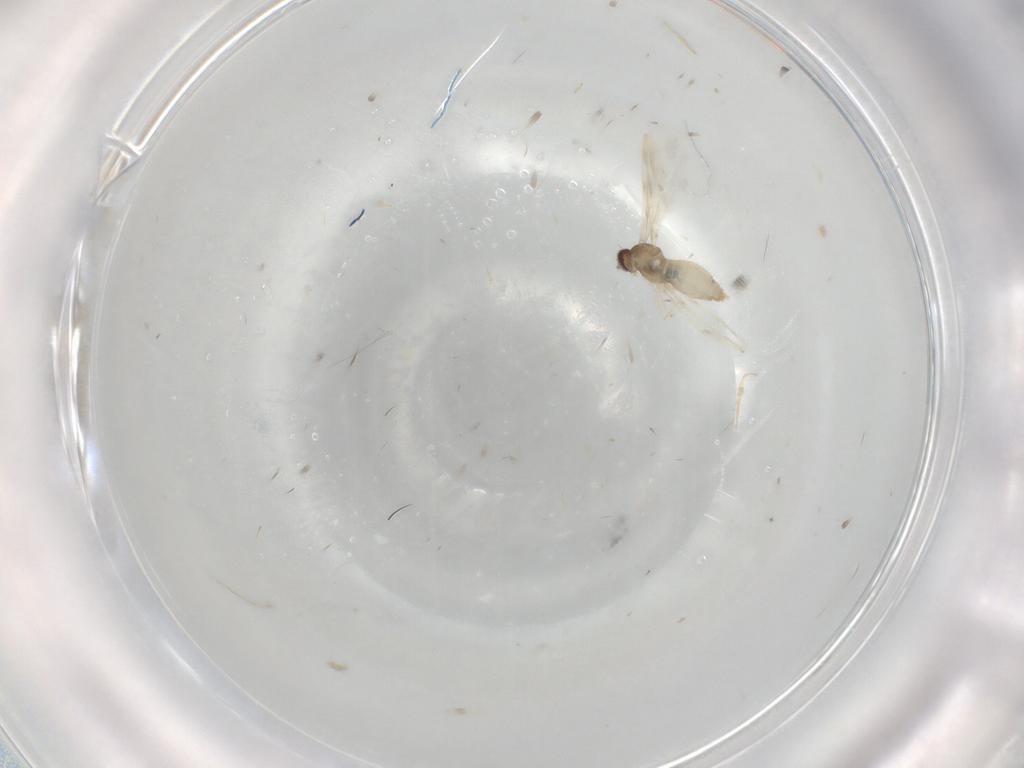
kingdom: Animalia
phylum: Arthropoda
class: Insecta
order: Diptera
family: Cecidomyiidae
